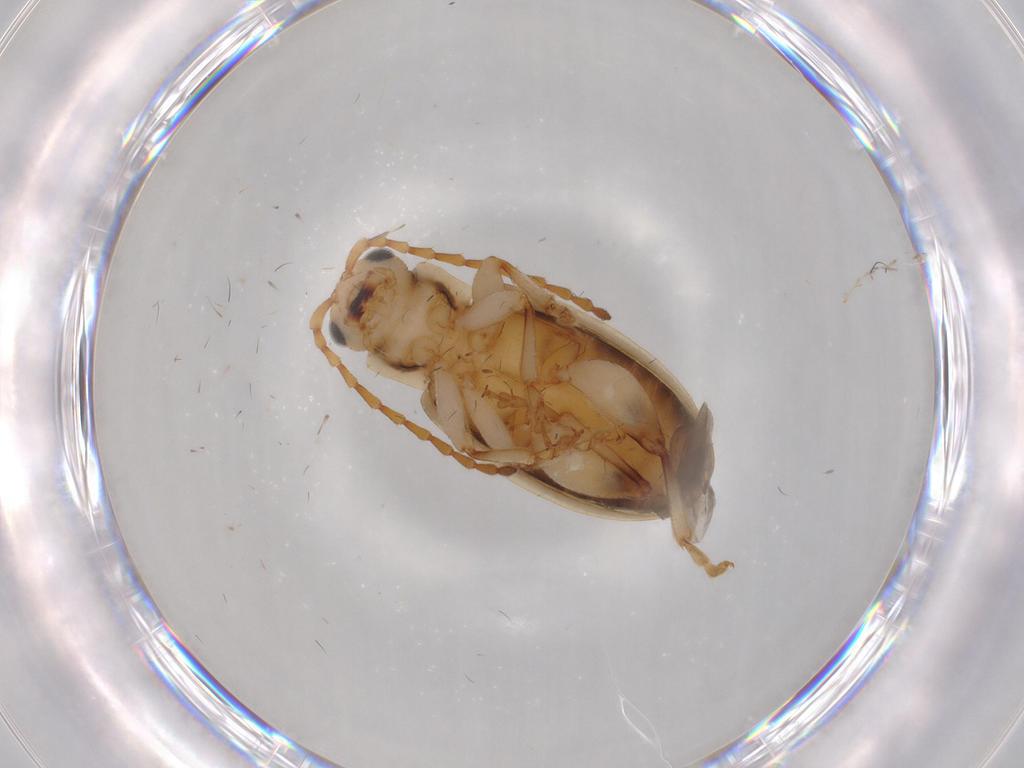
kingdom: Animalia
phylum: Arthropoda
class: Insecta
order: Coleoptera
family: Chrysomelidae
